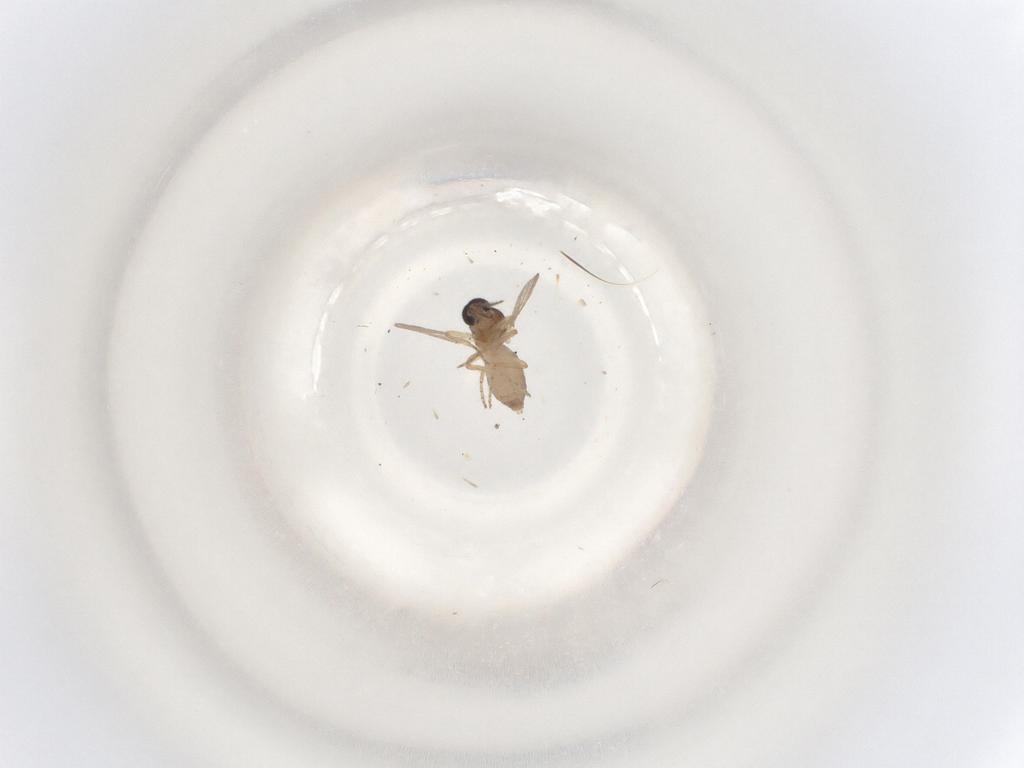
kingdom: Animalia
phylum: Arthropoda
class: Insecta
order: Diptera
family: Ceratopogonidae
